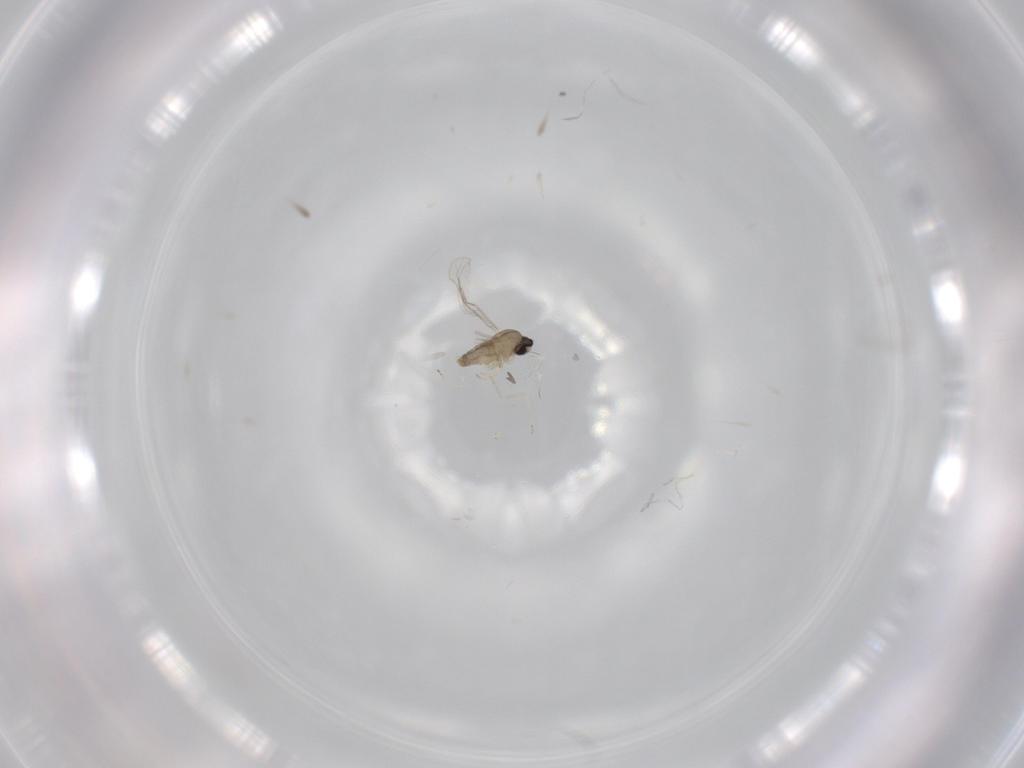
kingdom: Animalia
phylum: Arthropoda
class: Insecta
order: Diptera
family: Cecidomyiidae
